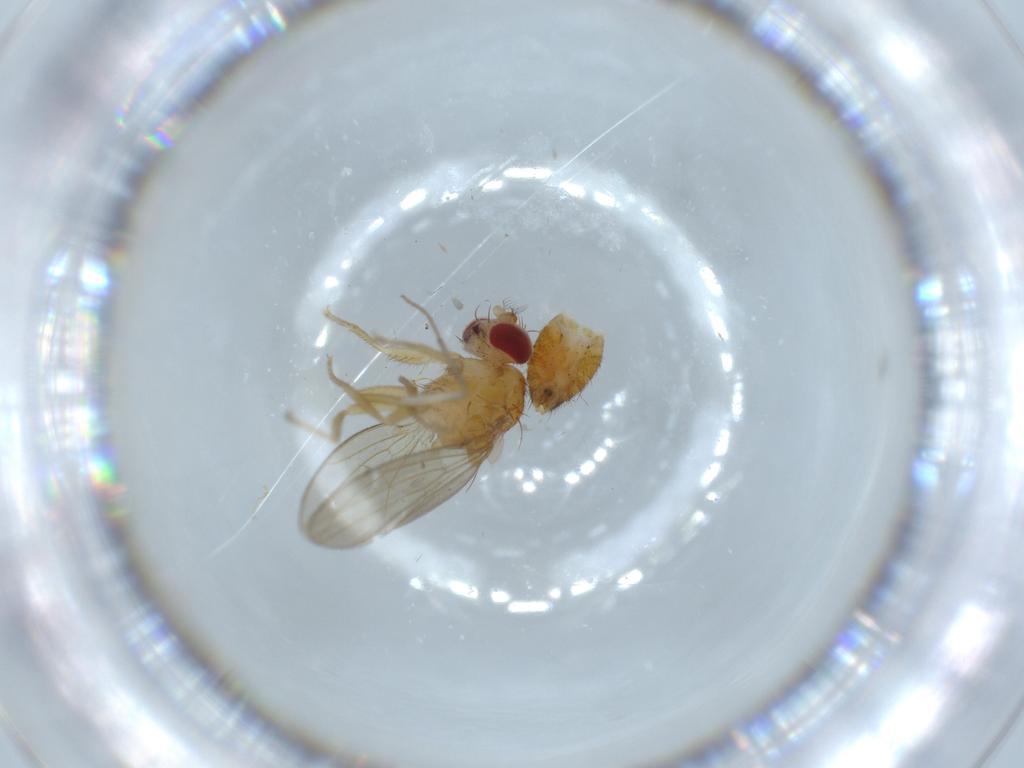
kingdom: Animalia
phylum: Arthropoda
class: Insecta
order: Diptera
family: Drosophilidae
